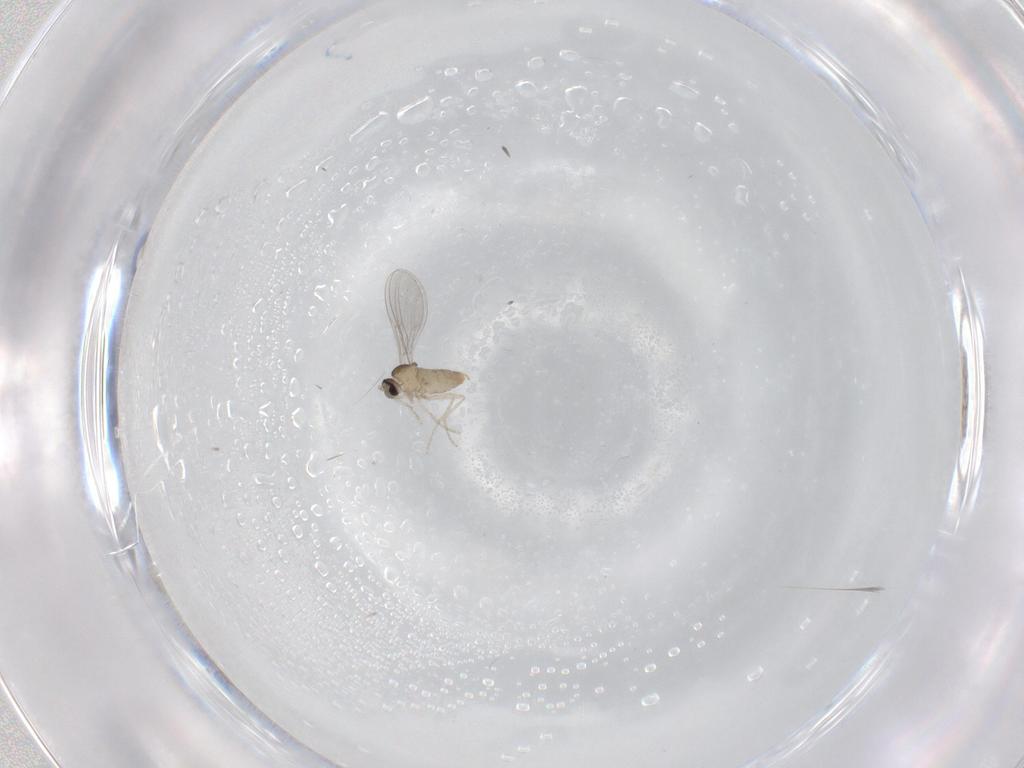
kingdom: Animalia
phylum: Arthropoda
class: Insecta
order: Diptera
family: Cecidomyiidae
